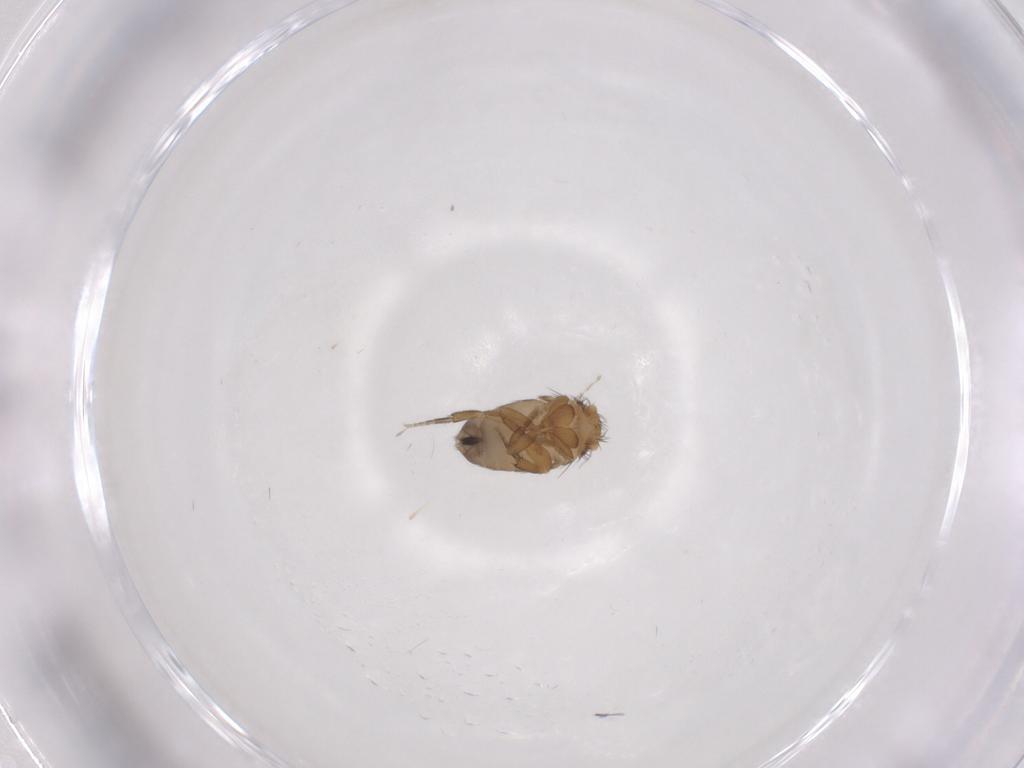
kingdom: Animalia
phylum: Arthropoda
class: Insecta
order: Diptera
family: Phoridae
